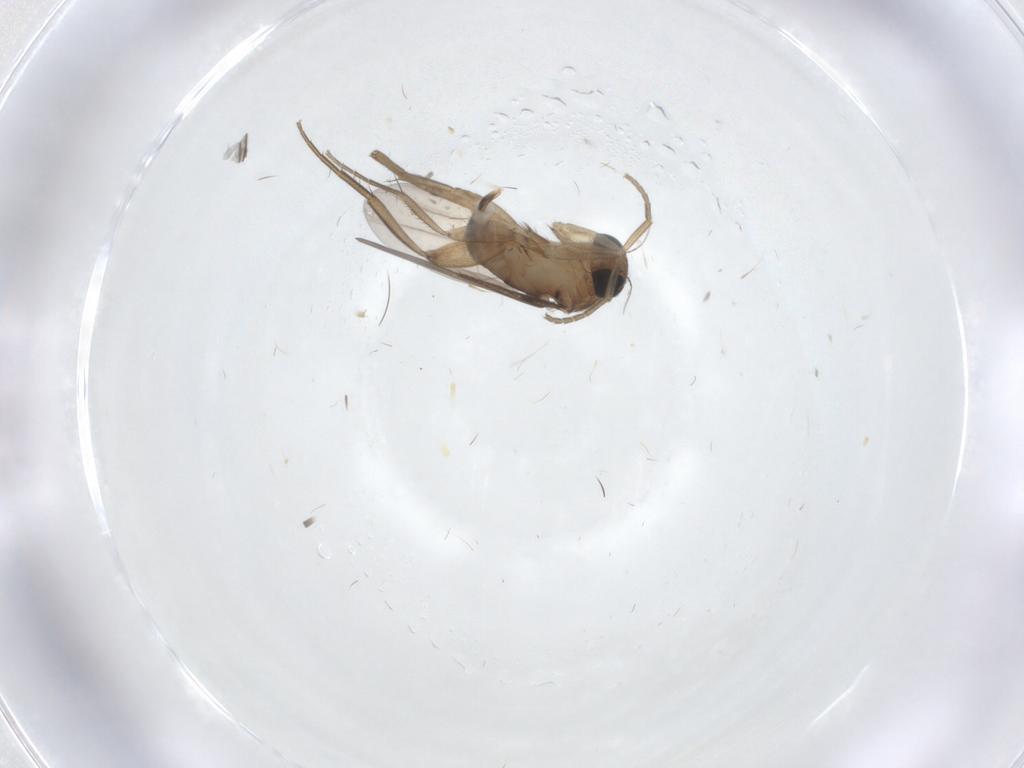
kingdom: Animalia
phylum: Arthropoda
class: Insecta
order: Diptera
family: Phoridae
